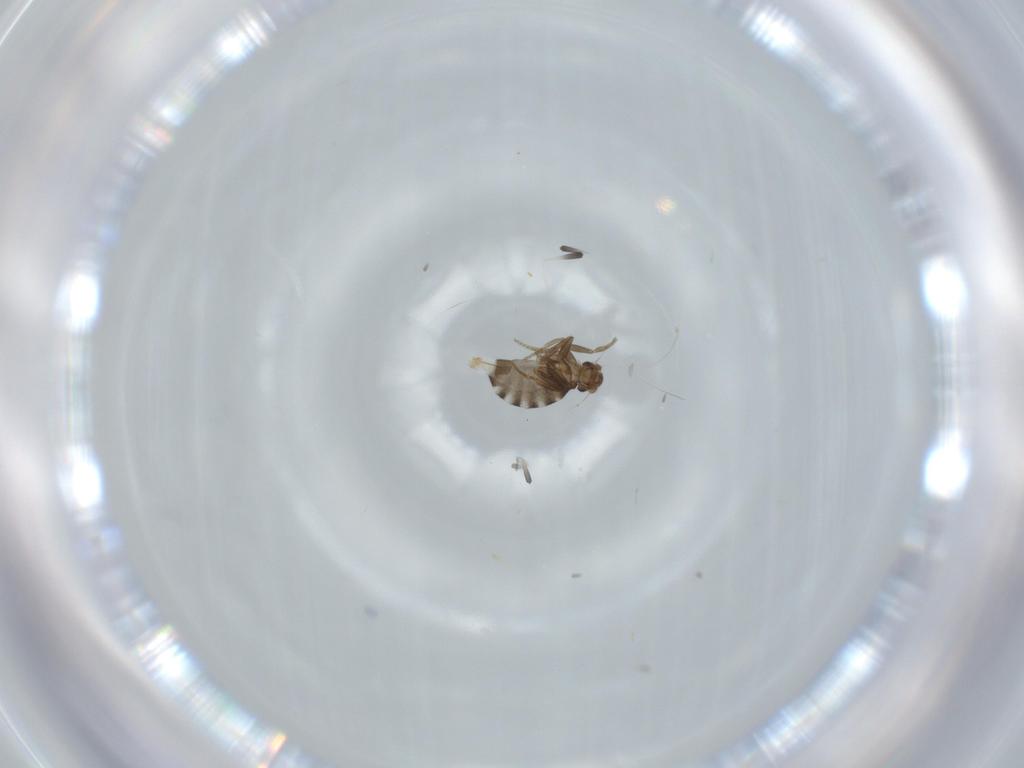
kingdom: Animalia
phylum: Arthropoda
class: Insecta
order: Diptera
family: Phoridae
